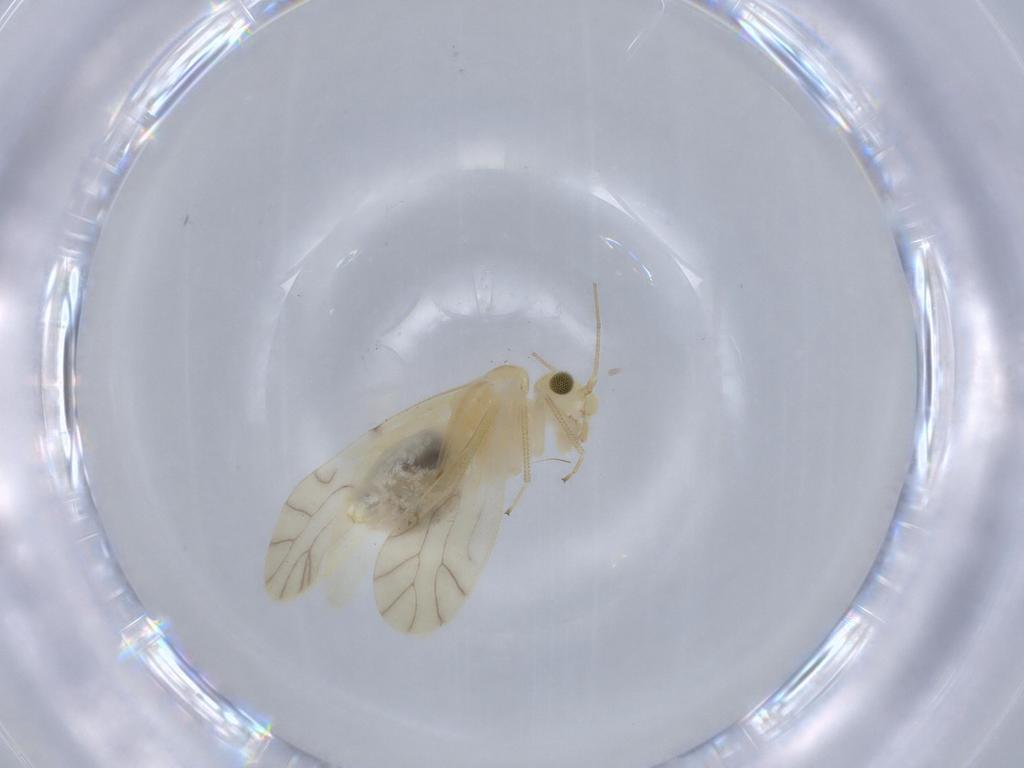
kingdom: Animalia
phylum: Arthropoda
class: Insecta
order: Psocodea
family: Caeciliusidae
